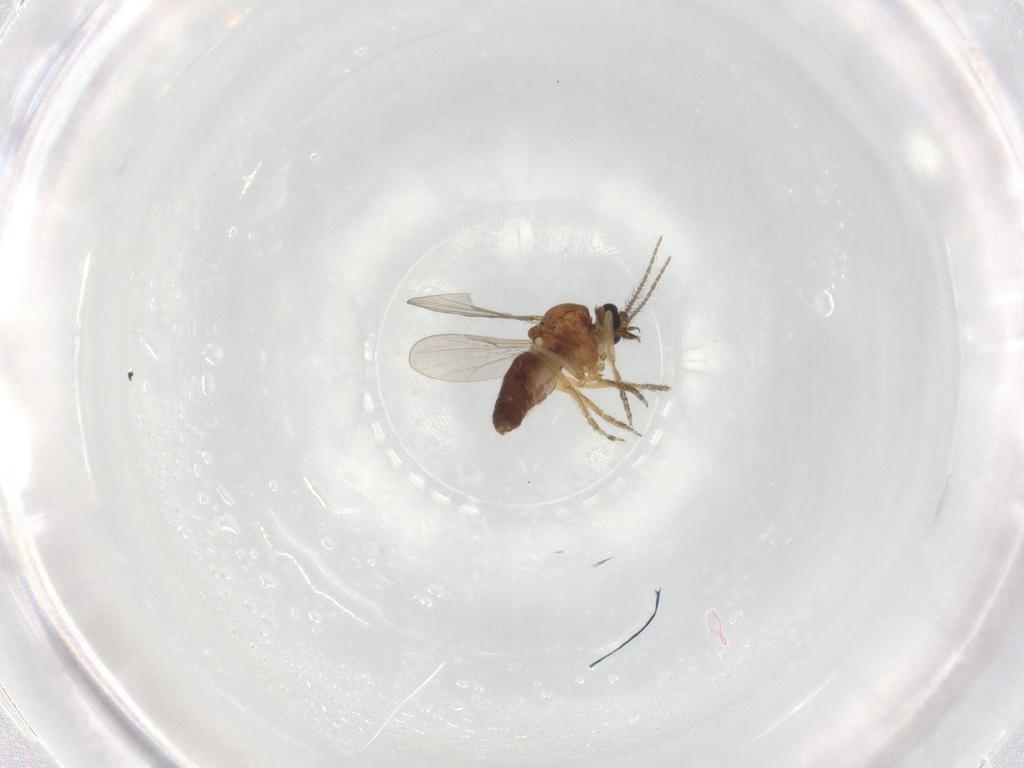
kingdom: Animalia
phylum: Arthropoda
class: Insecta
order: Diptera
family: Ceratopogonidae
